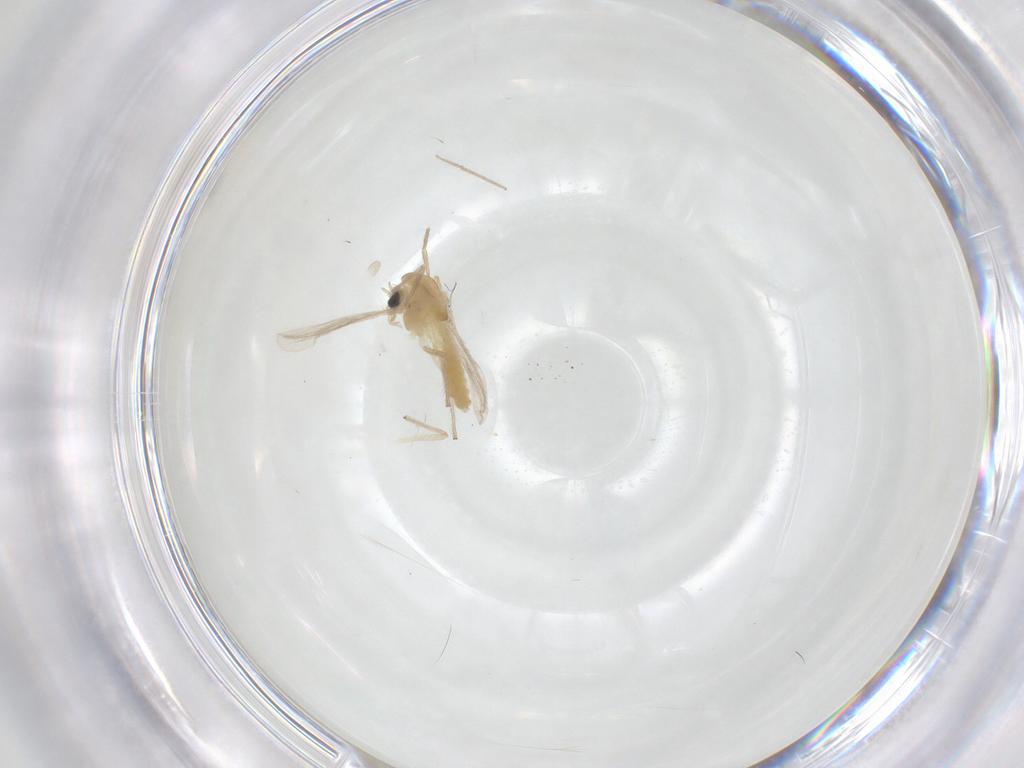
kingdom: Animalia
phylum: Arthropoda
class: Insecta
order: Diptera
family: Chironomidae
